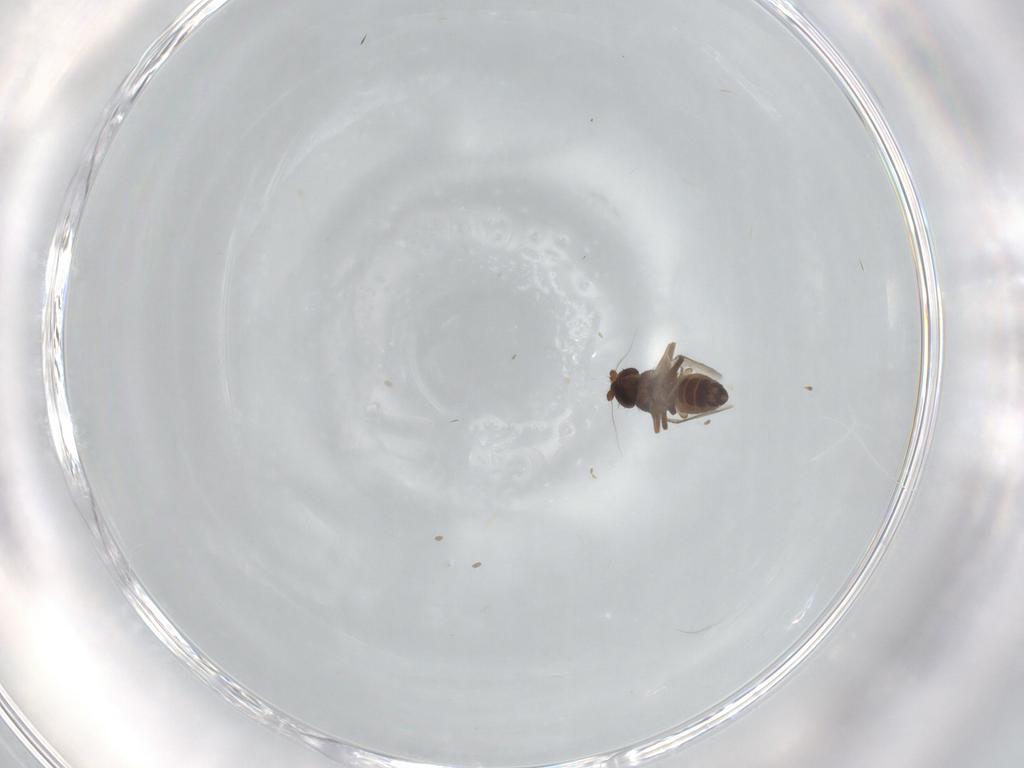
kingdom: Animalia
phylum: Arthropoda
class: Insecta
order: Diptera
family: Sphaeroceridae
